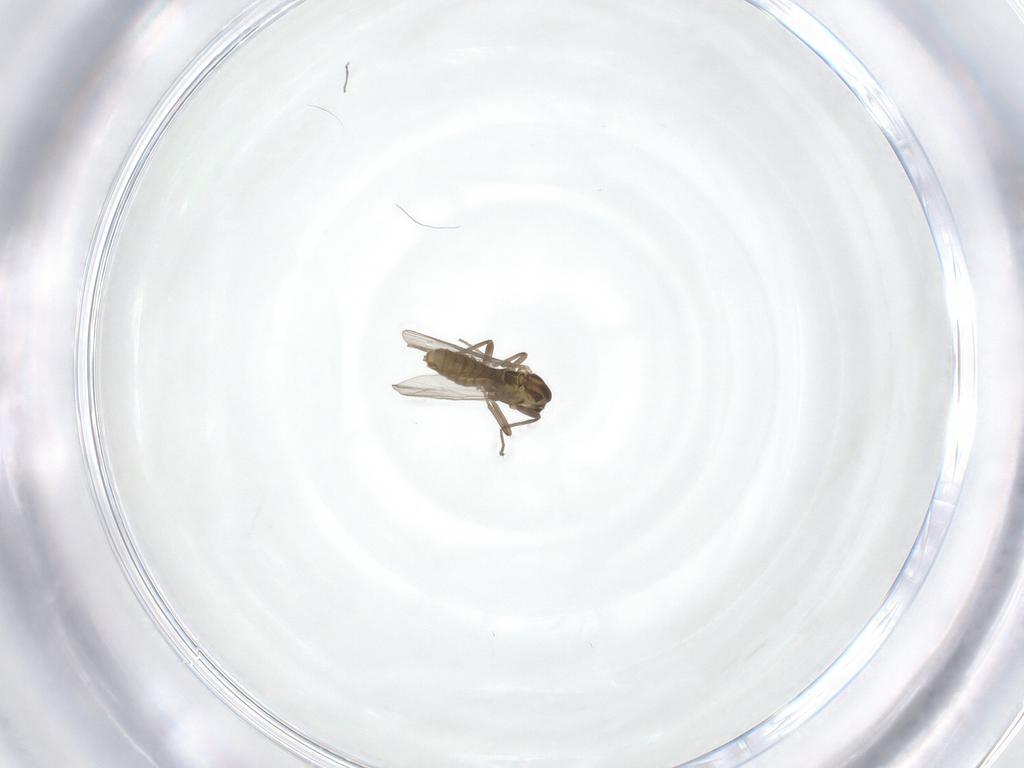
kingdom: Animalia
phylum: Arthropoda
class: Insecta
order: Diptera
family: Chironomidae
